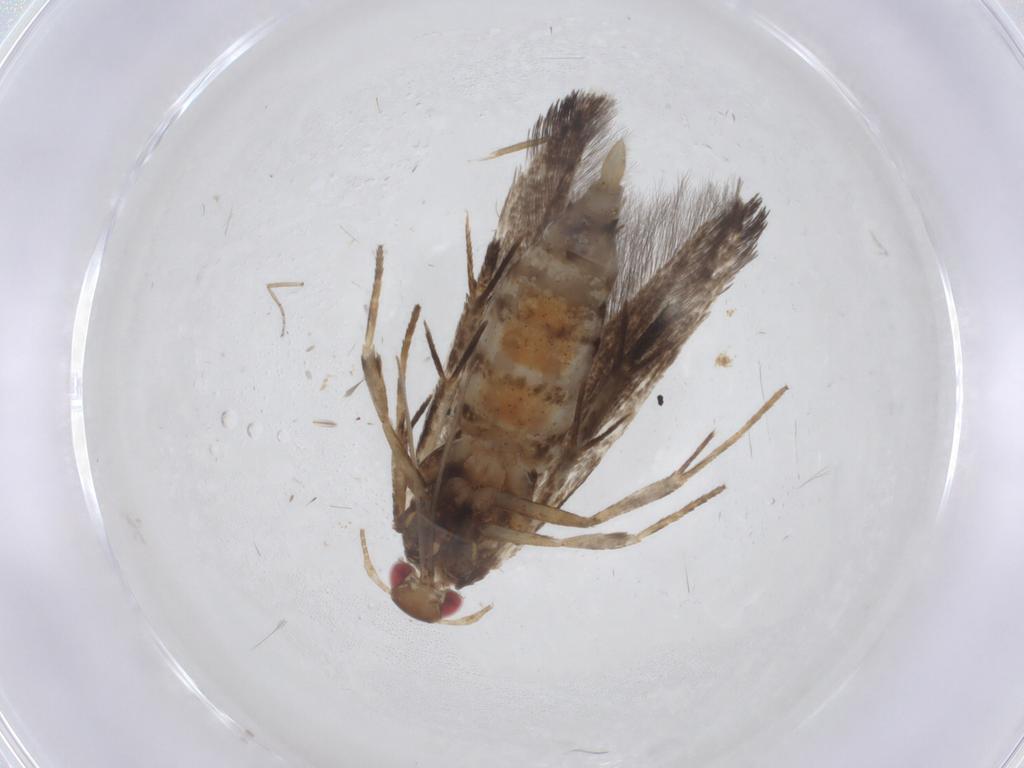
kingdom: Animalia
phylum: Arthropoda
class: Insecta
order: Lepidoptera
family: Gelechiidae
